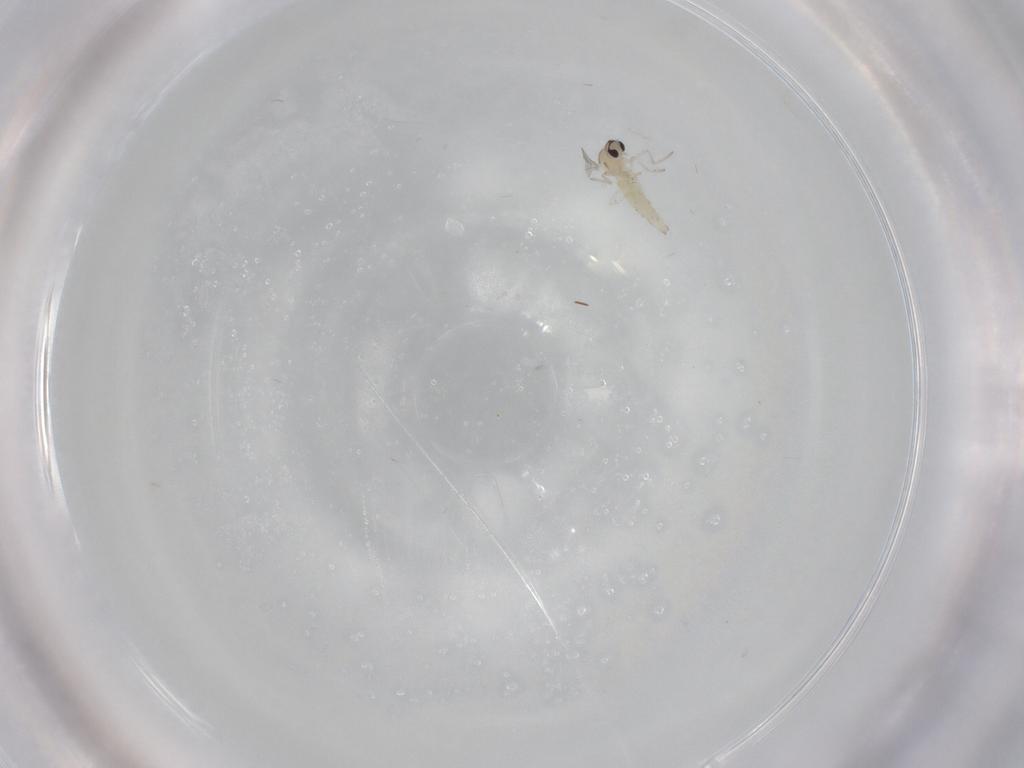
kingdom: Animalia
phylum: Arthropoda
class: Insecta
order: Diptera
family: Cecidomyiidae
